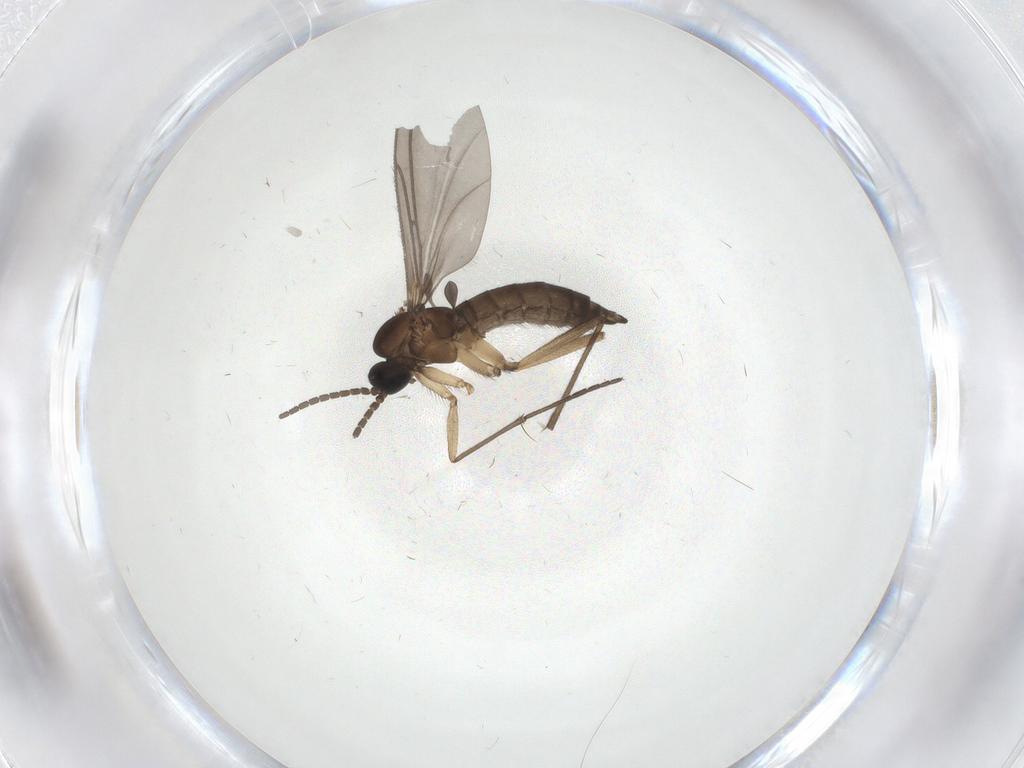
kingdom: Animalia
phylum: Arthropoda
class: Insecta
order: Diptera
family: Sciaridae
